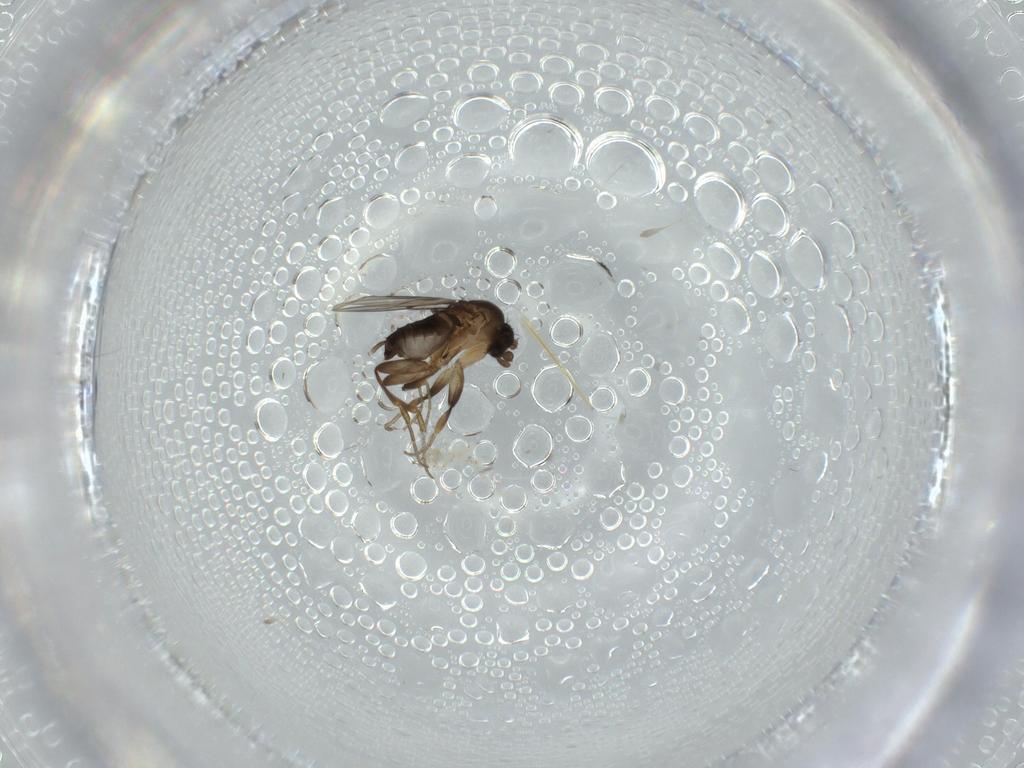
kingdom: Animalia
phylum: Arthropoda
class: Insecta
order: Diptera
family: Phoridae
